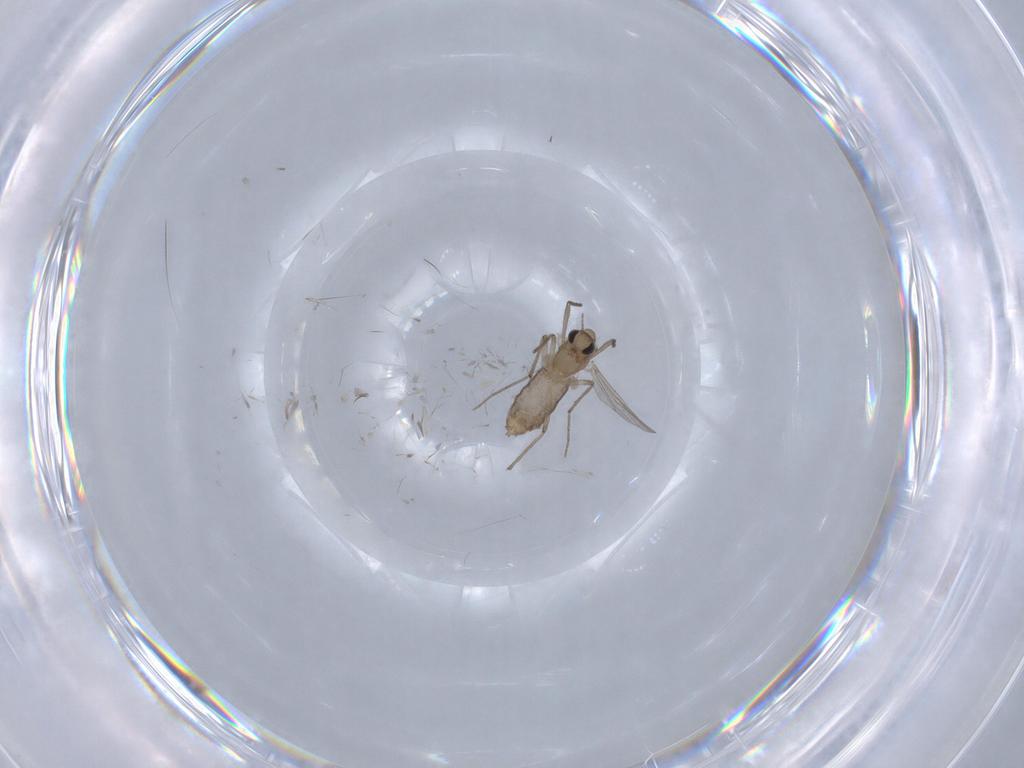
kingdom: Animalia
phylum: Arthropoda
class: Insecta
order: Diptera
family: Chironomidae
